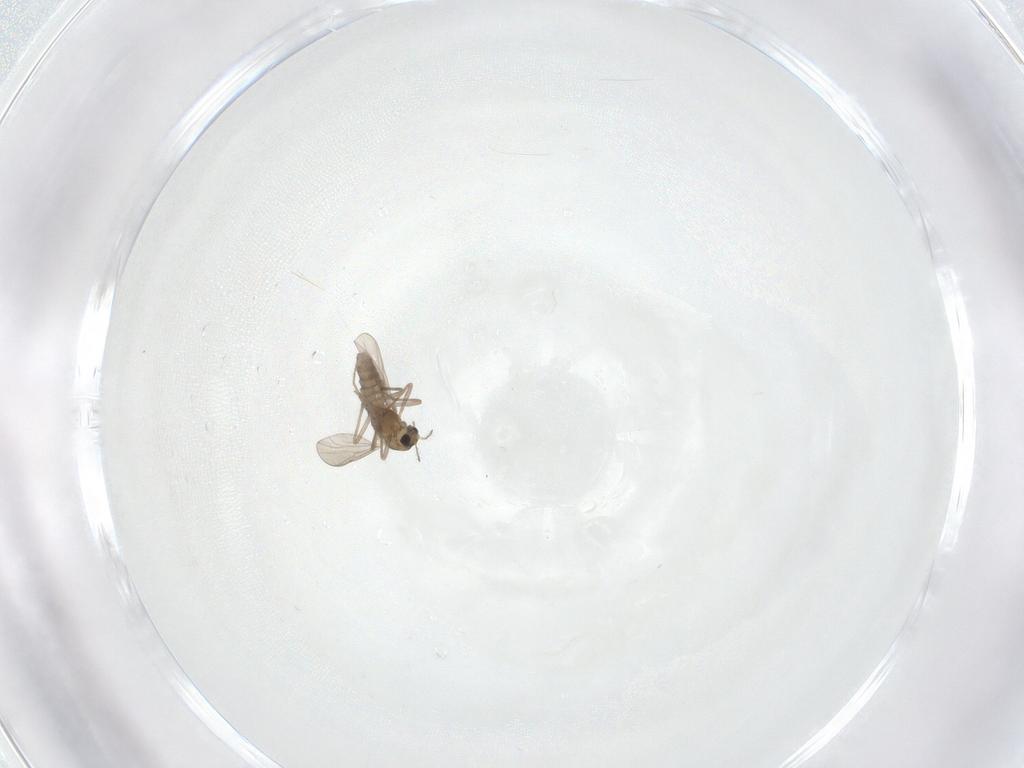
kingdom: Animalia
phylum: Arthropoda
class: Insecta
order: Diptera
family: Chironomidae
